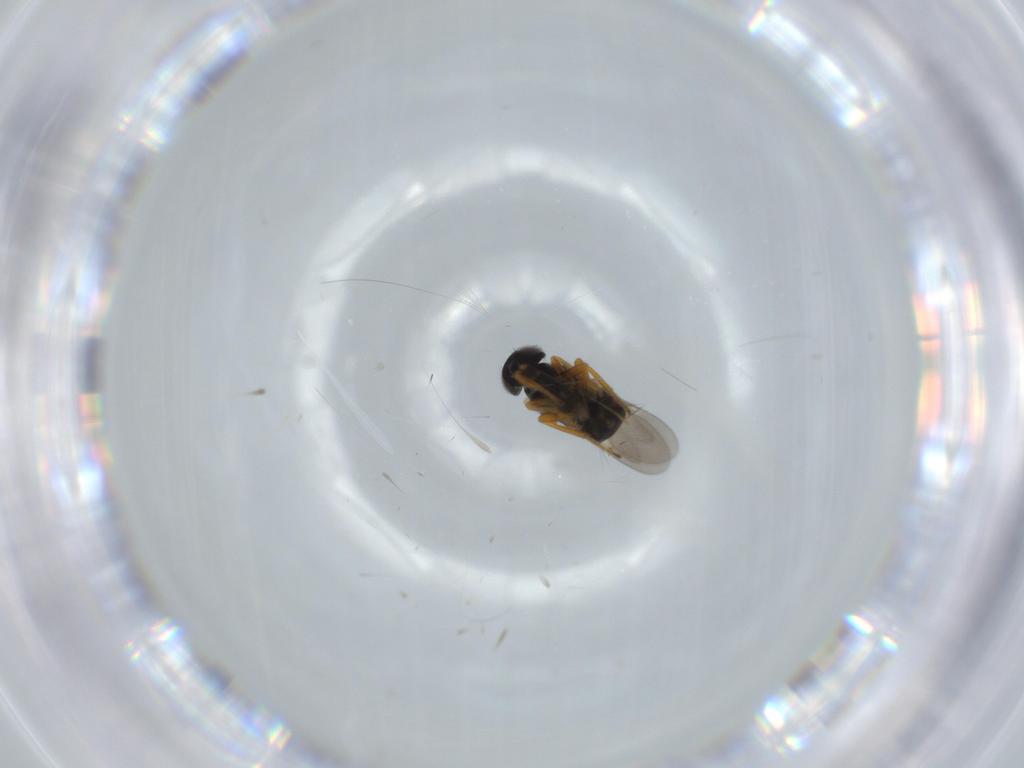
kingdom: Animalia
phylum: Arthropoda
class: Insecta
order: Hymenoptera
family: Encyrtidae
